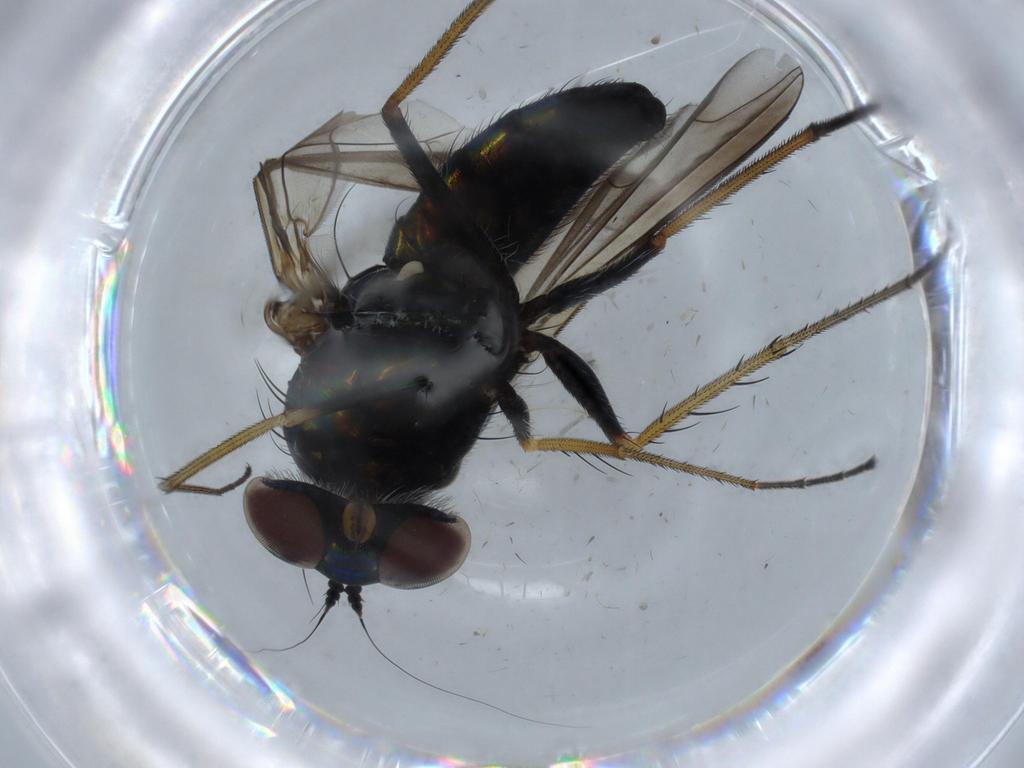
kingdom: Animalia
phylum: Arthropoda
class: Insecta
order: Diptera
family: Dolichopodidae
